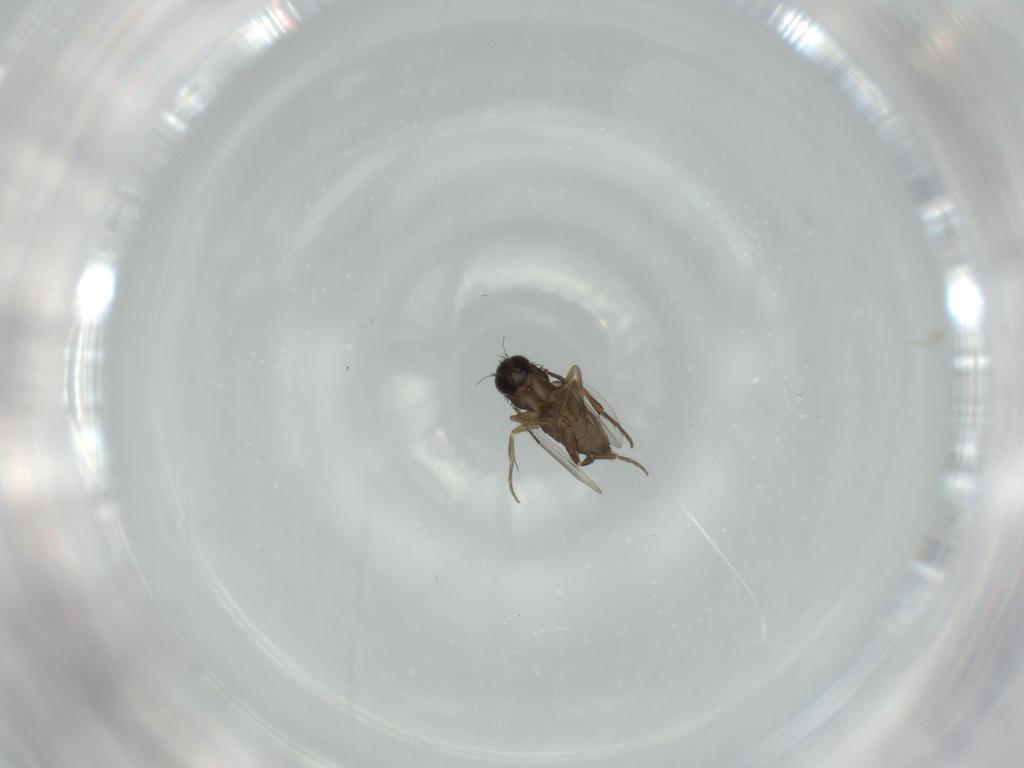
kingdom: Animalia
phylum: Arthropoda
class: Insecta
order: Diptera
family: Phoridae
